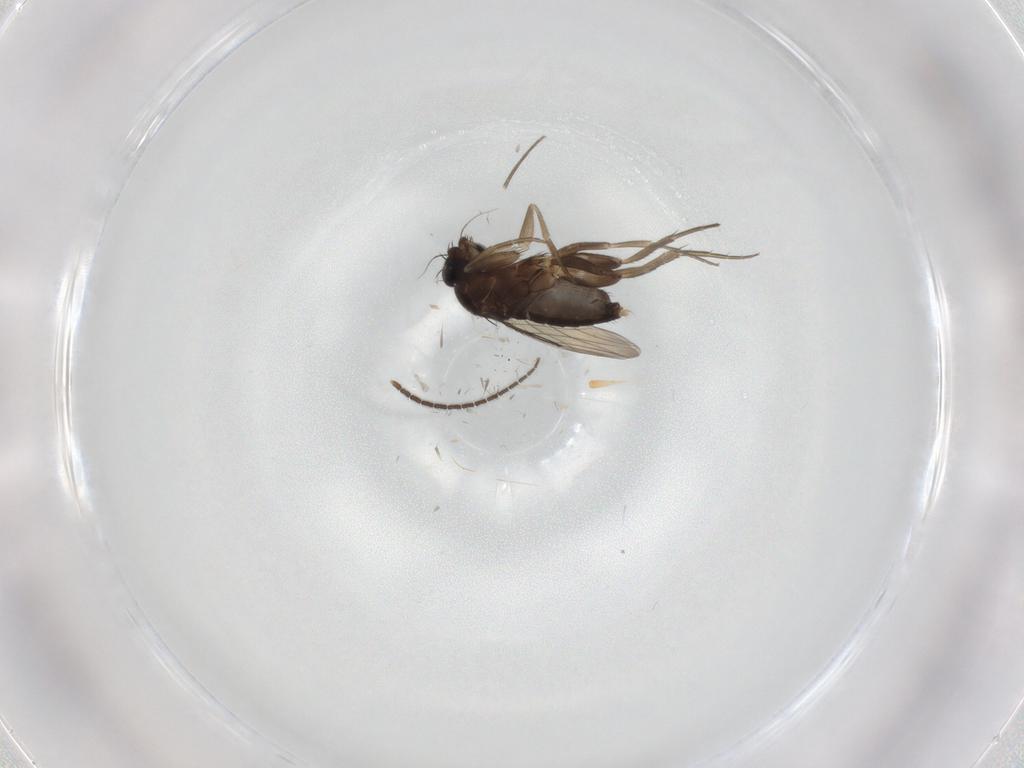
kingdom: Animalia
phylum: Arthropoda
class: Insecta
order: Diptera
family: Phoridae
